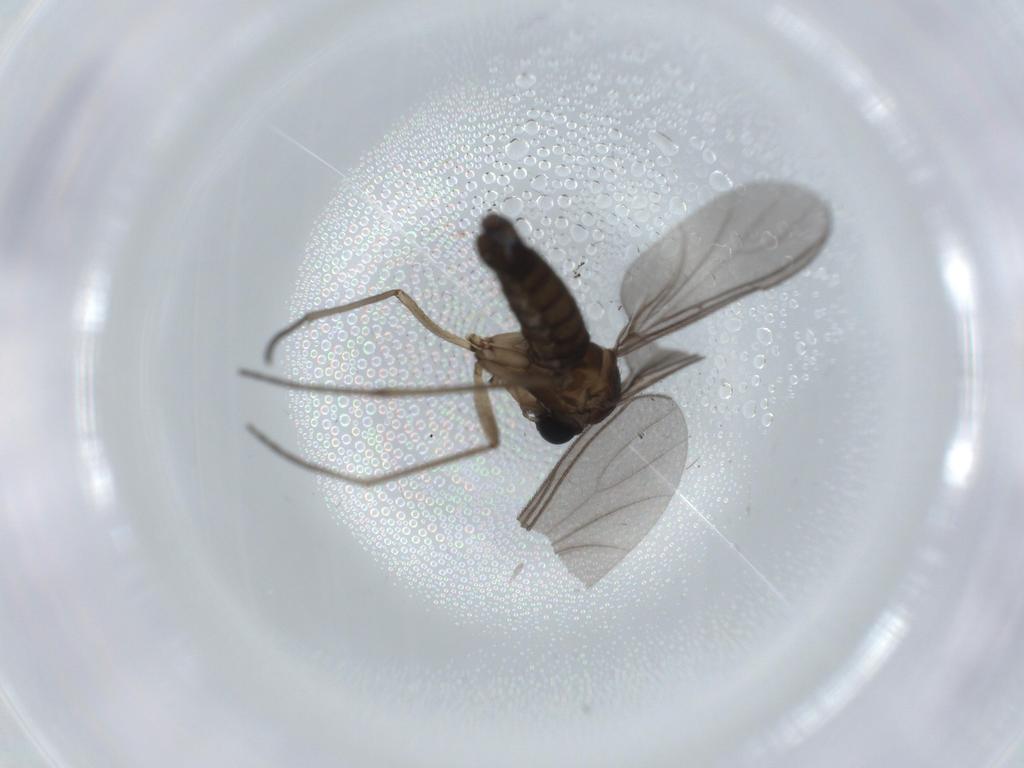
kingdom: Animalia
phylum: Arthropoda
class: Insecta
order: Diptera
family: Sciaridae
